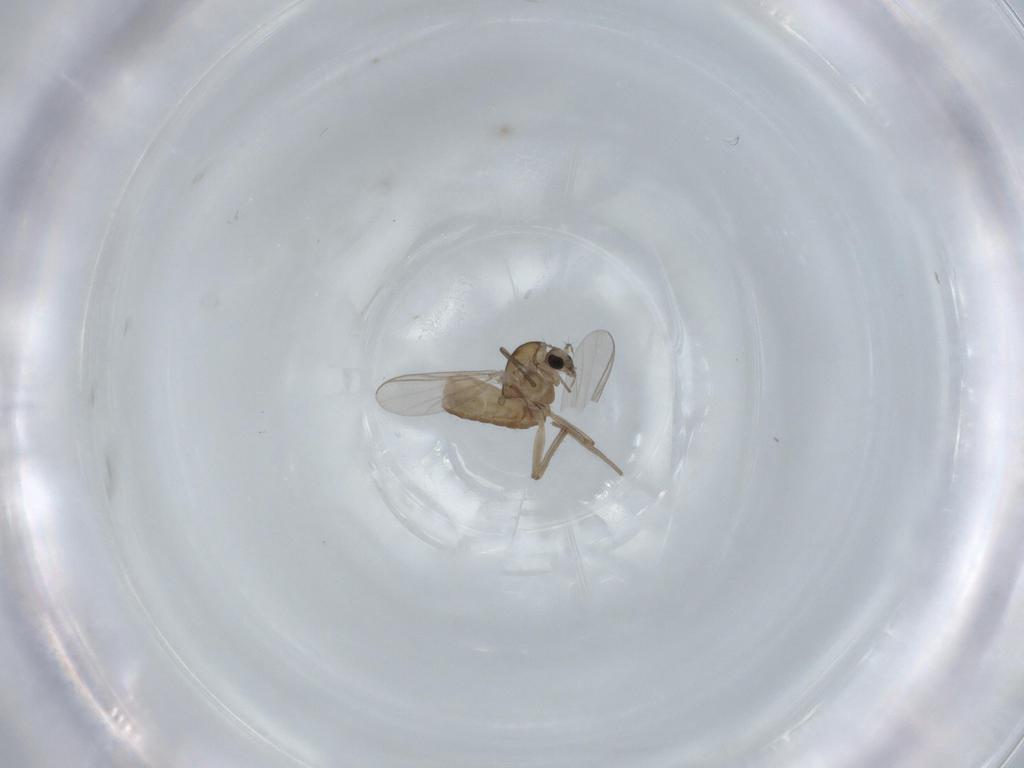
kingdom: Animalia
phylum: Arthropoda
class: Insecta
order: Diptera
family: Chironomidae
